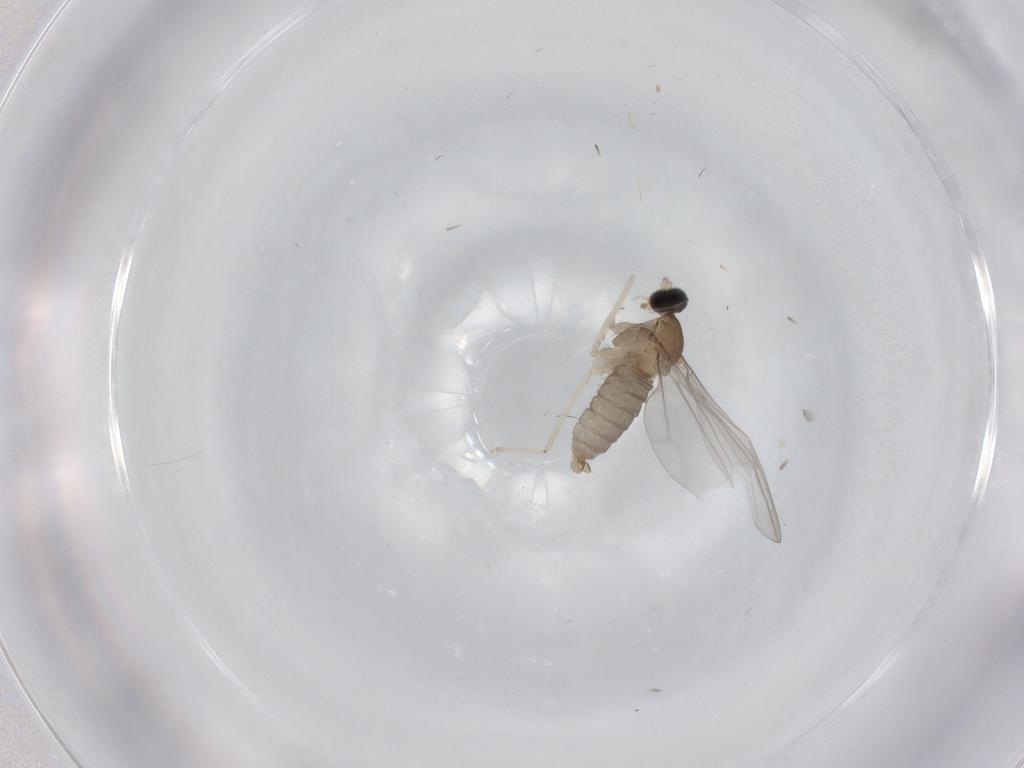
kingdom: Animalia
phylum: Arthropoda
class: Insecta
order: Diptera
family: Cecidomyiidae
